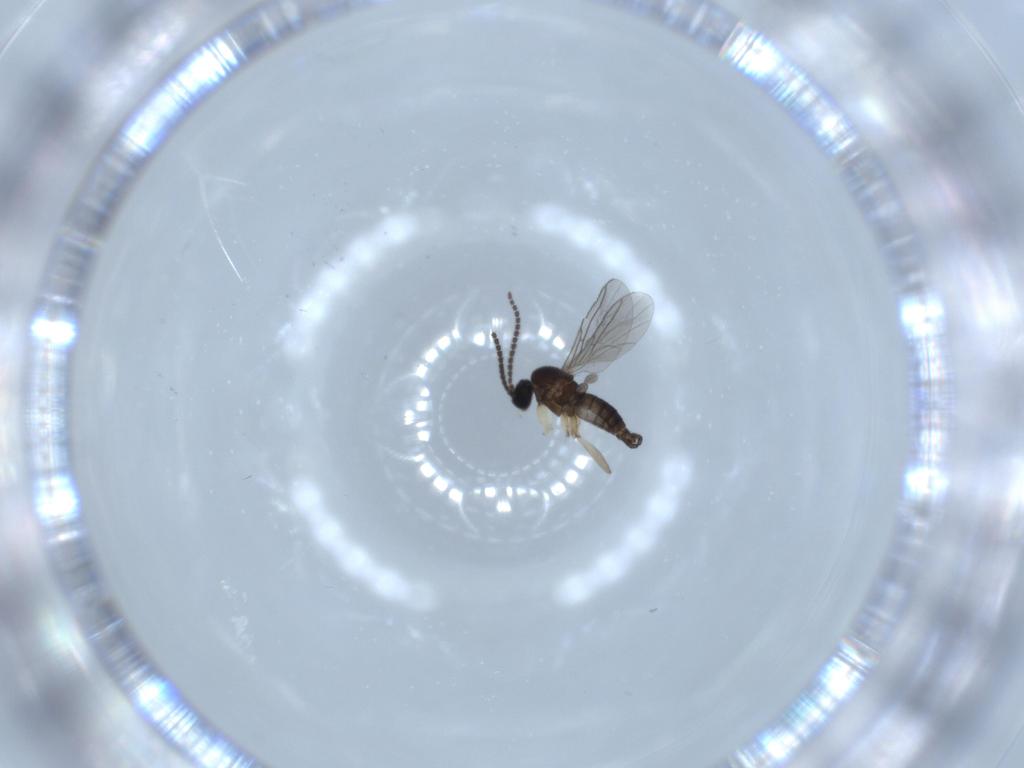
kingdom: Animalia
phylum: Arthropoda
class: Insecta
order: Diptera
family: Sciaridae
